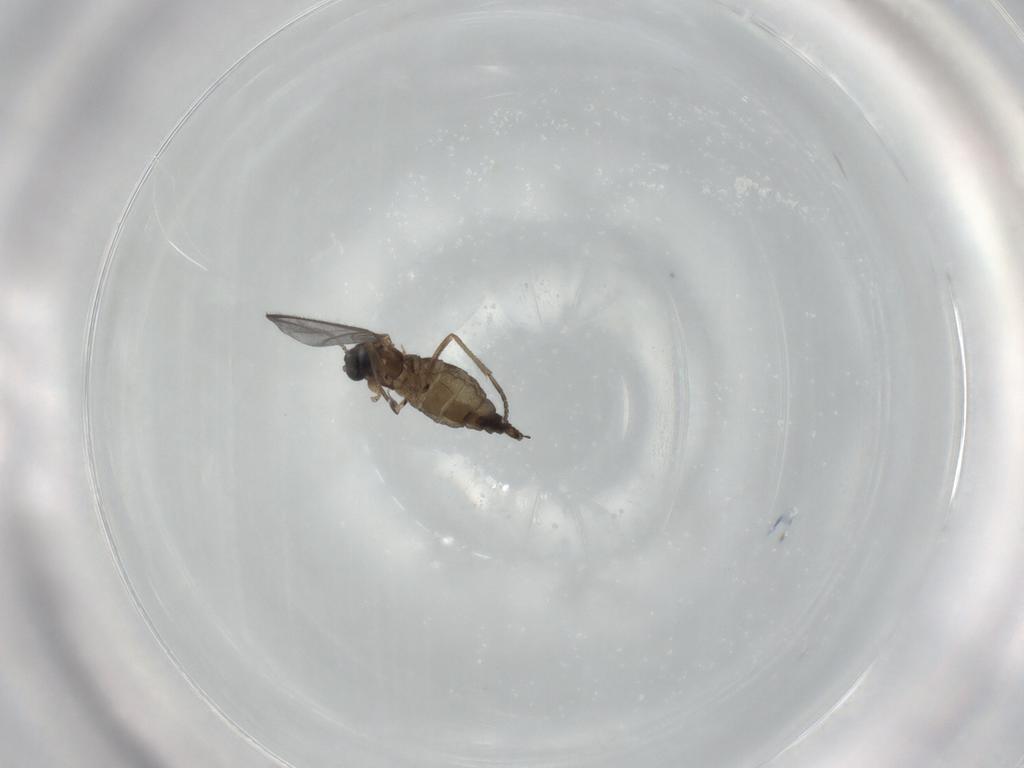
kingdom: Animalia
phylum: Arthropoda
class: Insecta
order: Diptera
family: Sciaridae
